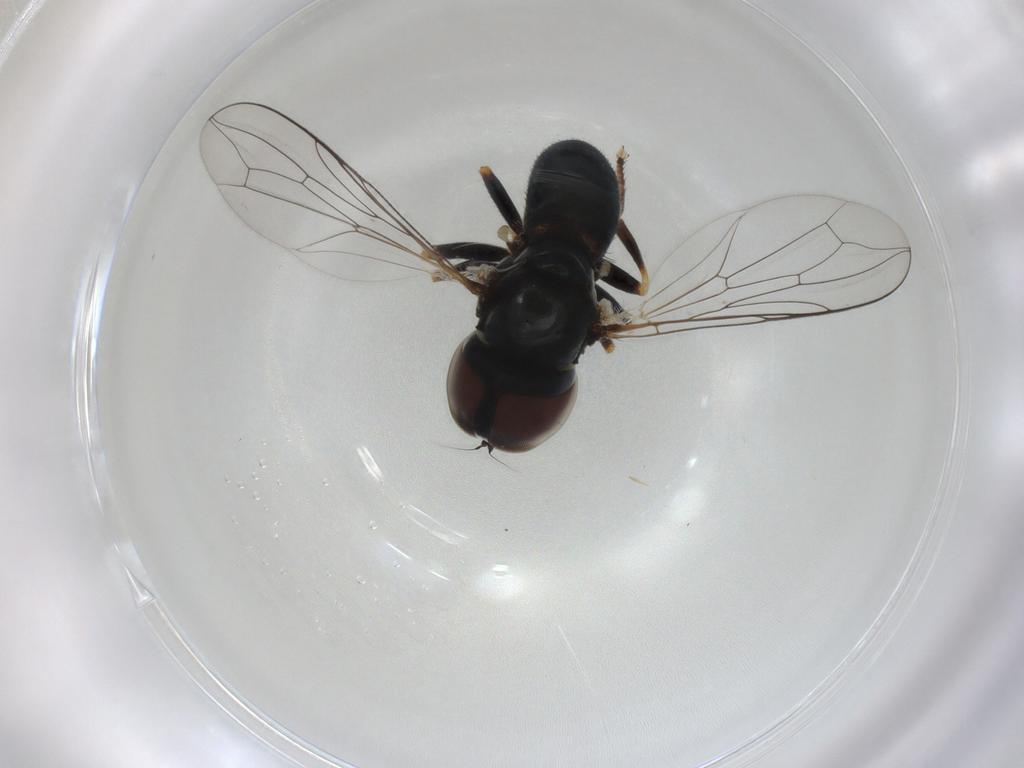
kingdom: Animalia
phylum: Arthropoda
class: Insecta
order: Diptera
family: Pipunculidae
